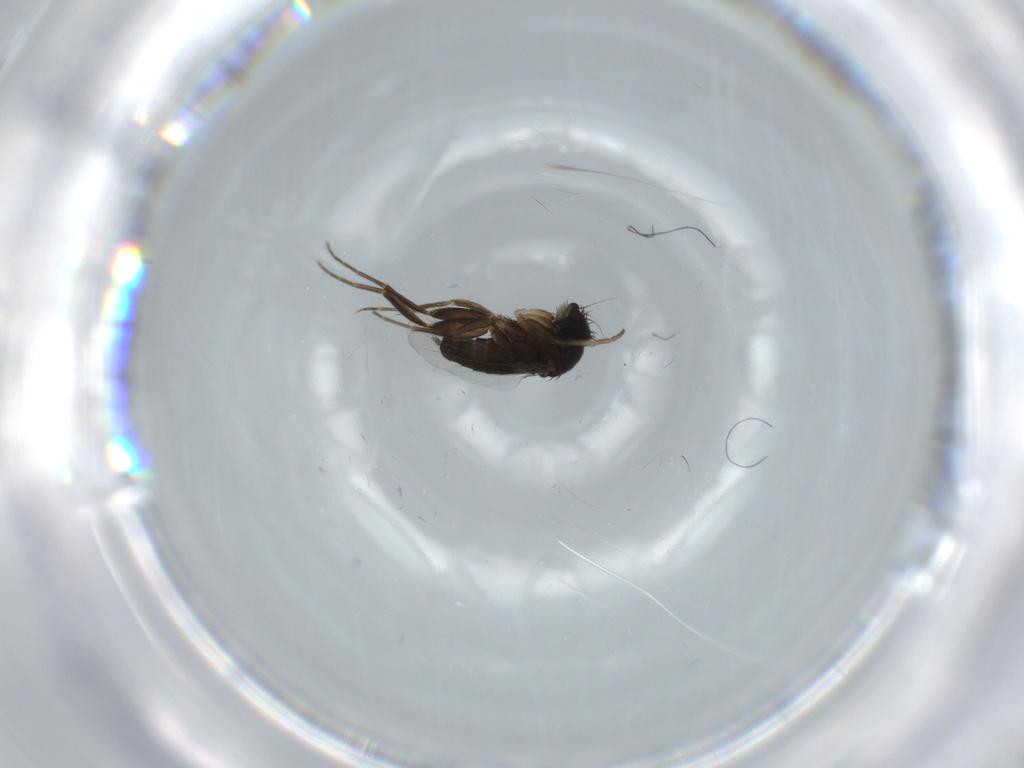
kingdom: Animalia
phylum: Arthropoda
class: Insecta
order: Diptera
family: Phoridae
